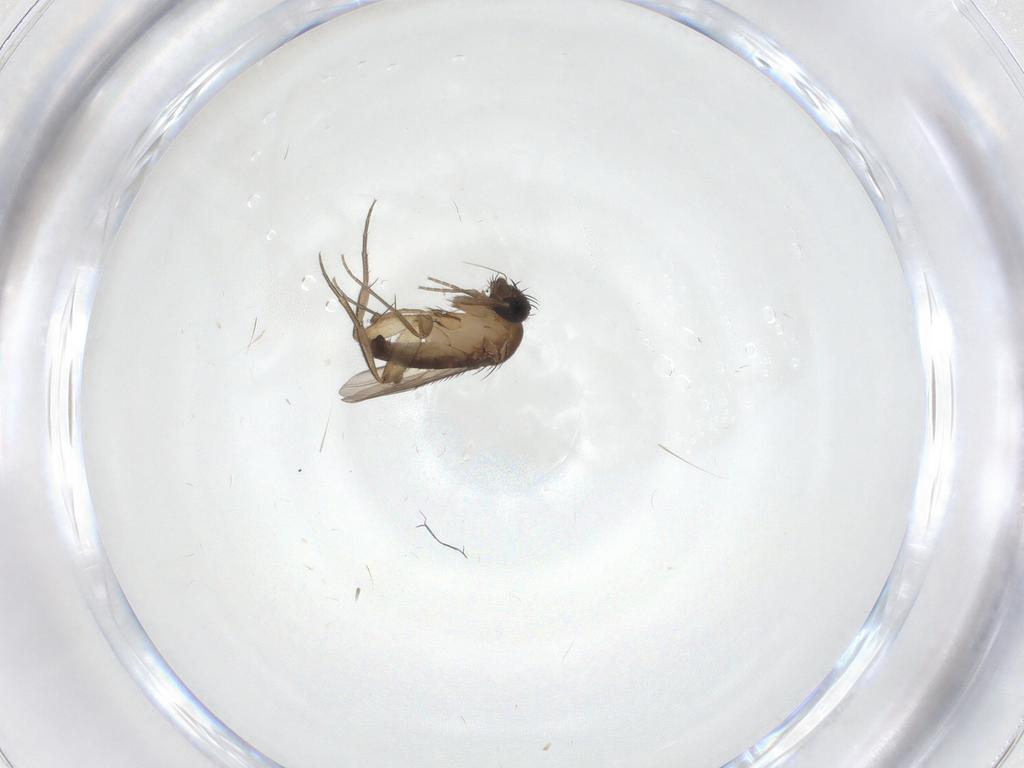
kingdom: Animalia
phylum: Arthropoda
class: Insecta
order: Diptera
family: Phoridae
